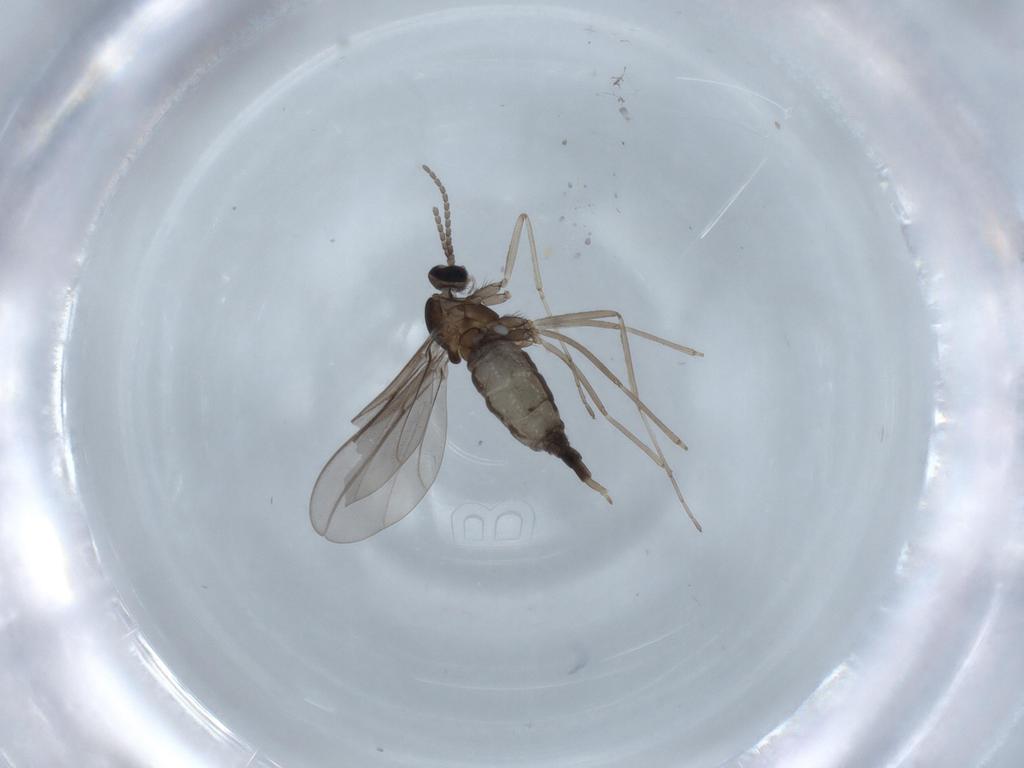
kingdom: Animalia
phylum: Arthropoda
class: Insecta
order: Diptera
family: Cecidomyiidae
